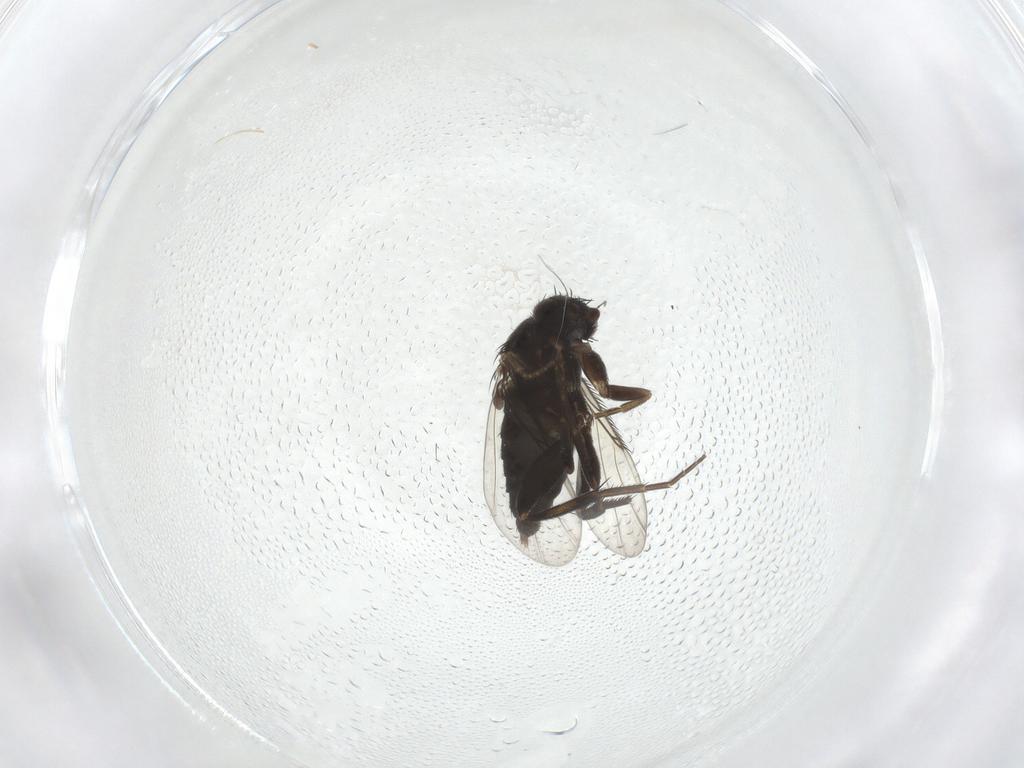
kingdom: Animalia
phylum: Arthropoda
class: Insecta
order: Diptera
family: Phoridae
